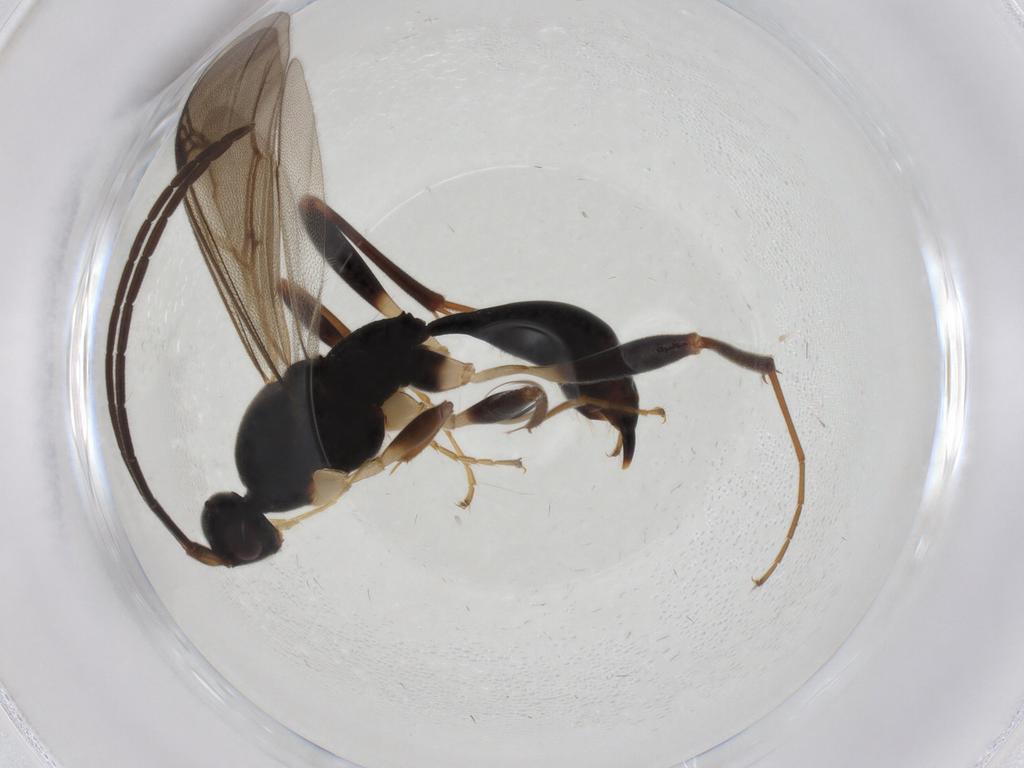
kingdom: Animalia
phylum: Arthropoda
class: Insecta
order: Hymenoptera
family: Proctotrupidae
